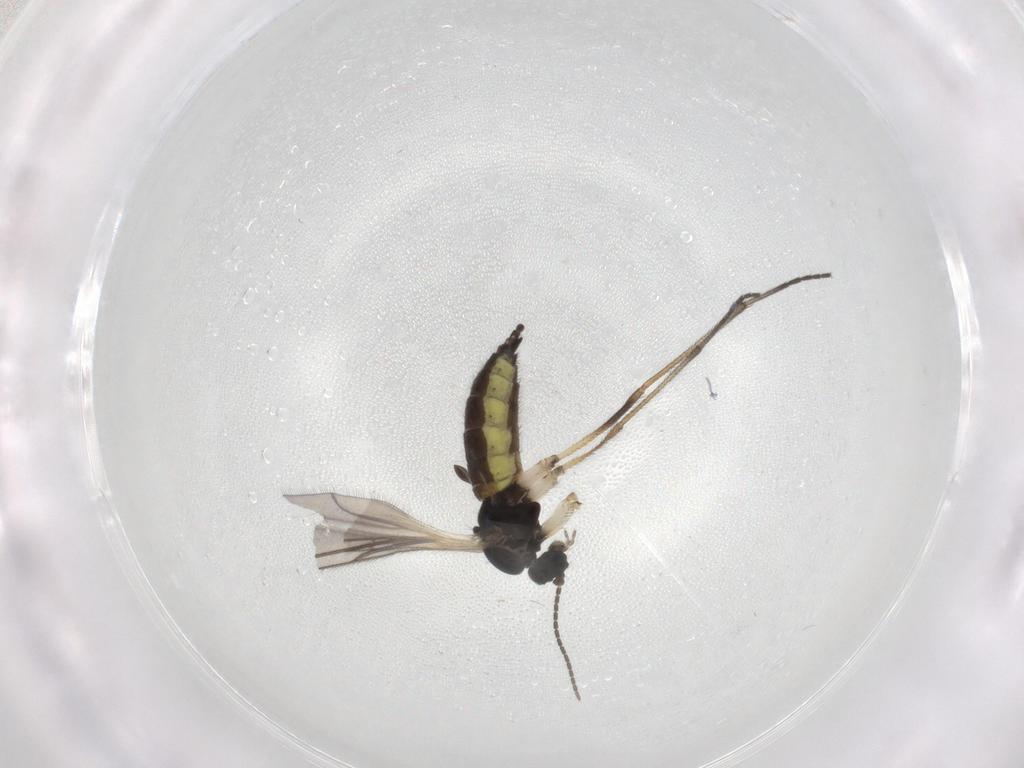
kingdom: Animalia
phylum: Arthropoda
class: Insecta
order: Diptera
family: Sciaridae
